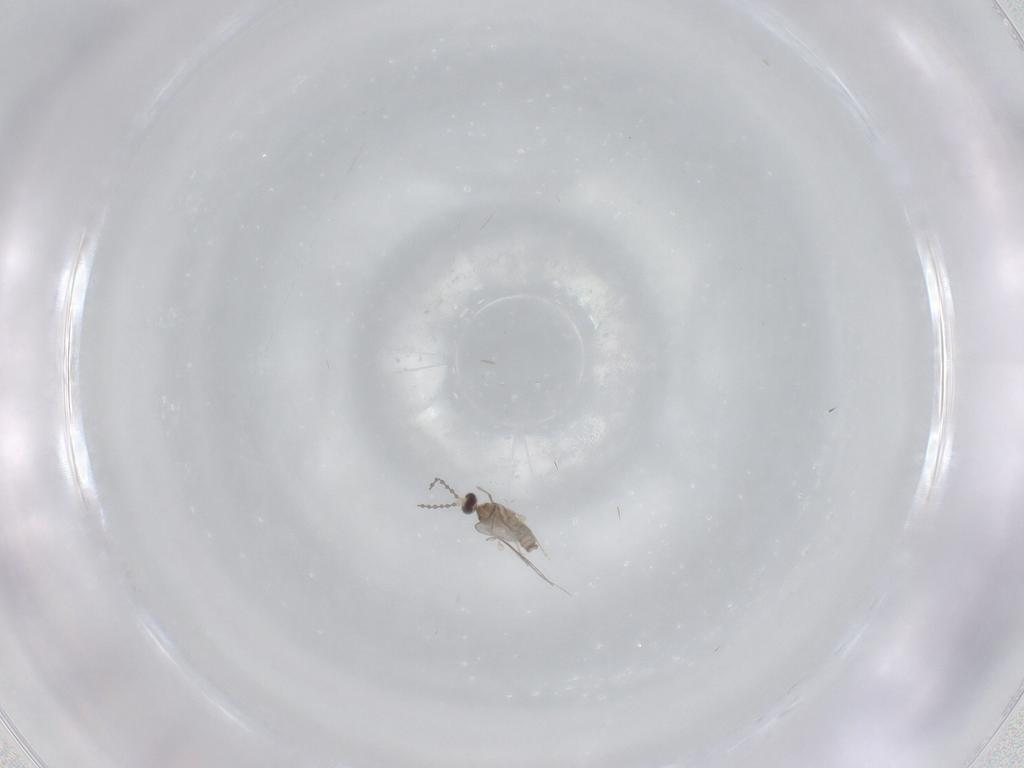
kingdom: Animalia
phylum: Arthropoda
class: Insecta
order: Diptera
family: Cecidomyiidae
